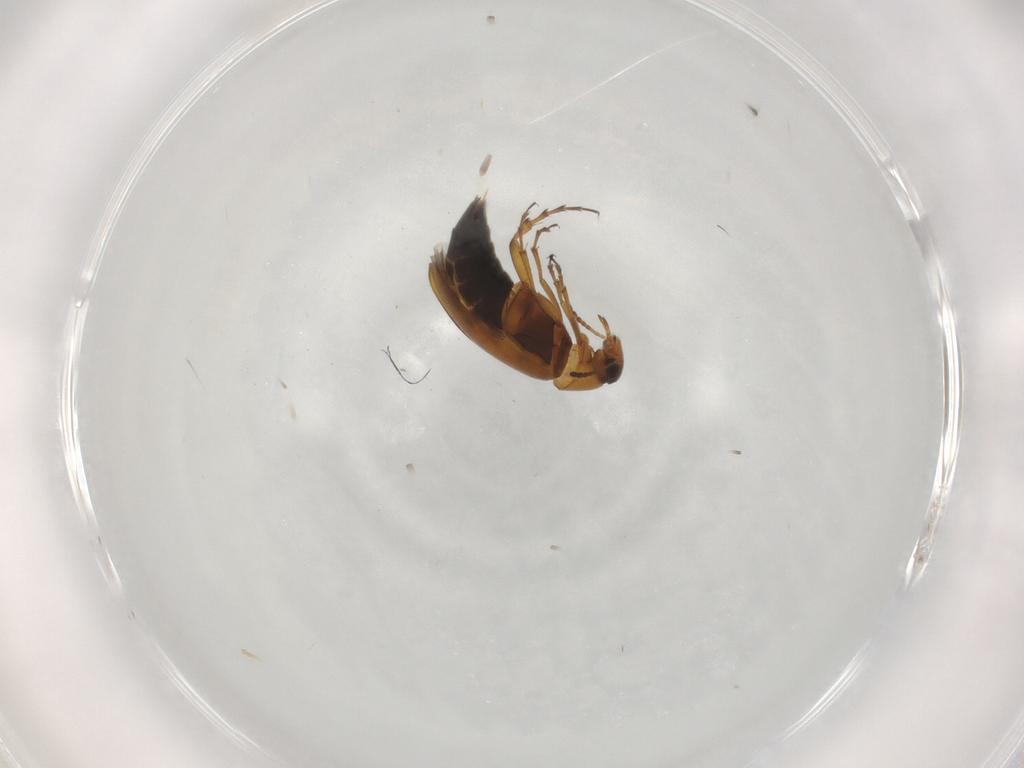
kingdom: Animalia
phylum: Arthropoda
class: Insecta
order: Coleoptera
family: Scraptiidae
